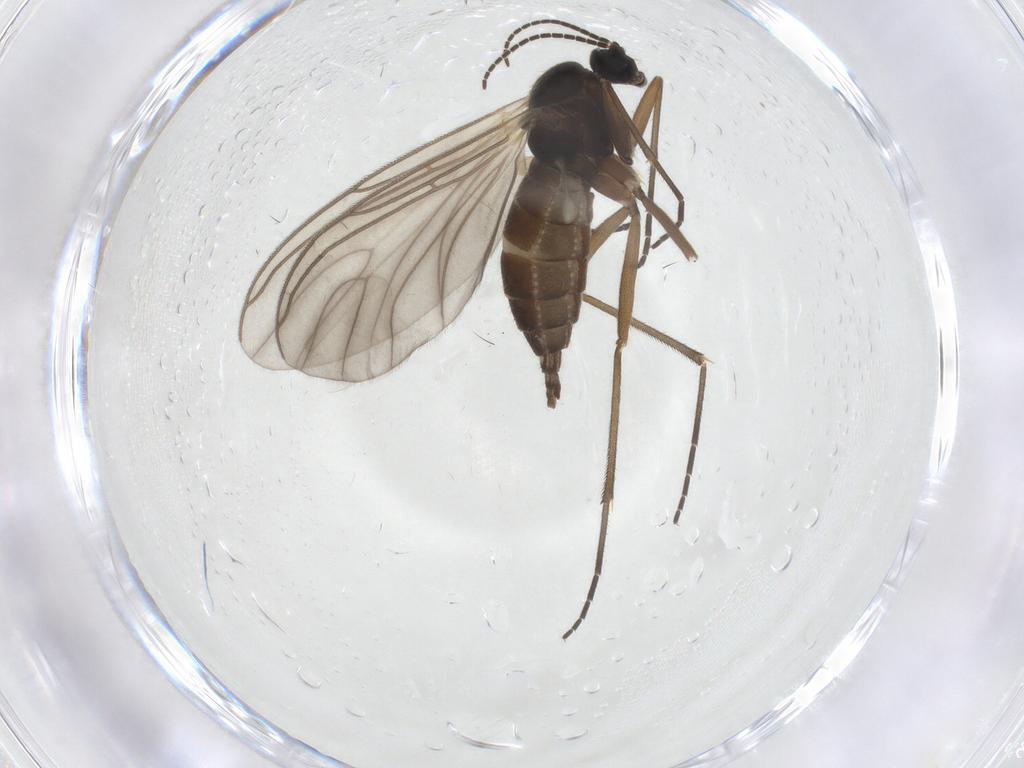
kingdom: Animalia
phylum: Arthropoda
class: Insecta
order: Diptera
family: Sciaridae
